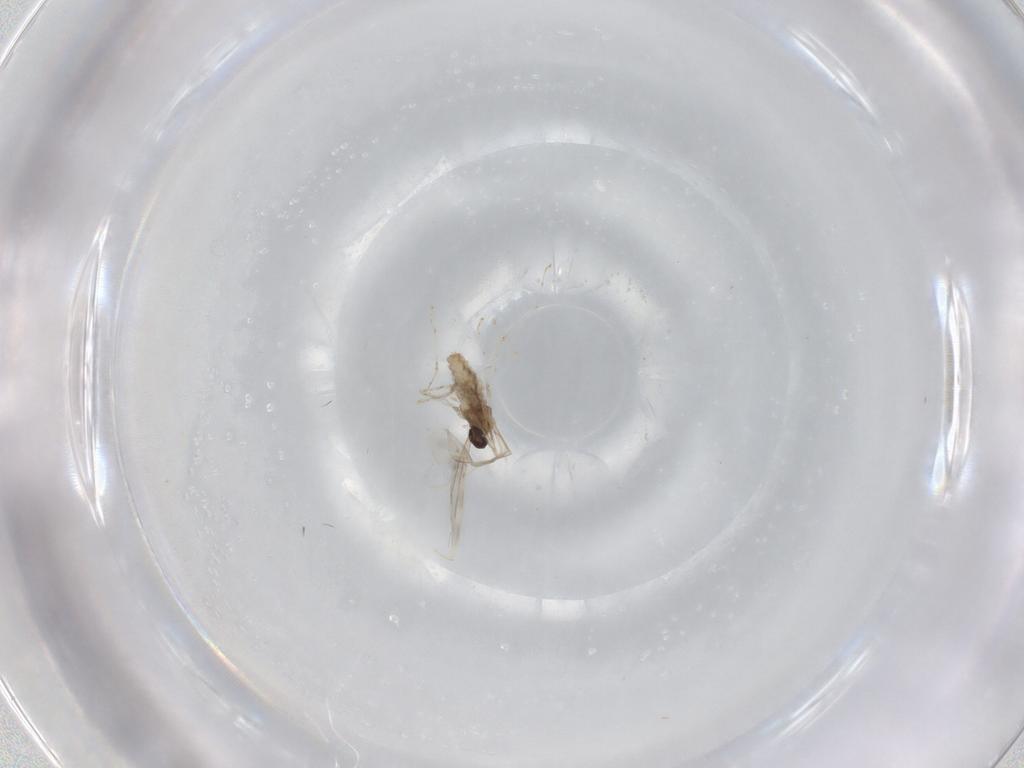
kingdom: Animalia
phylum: Arthropoda
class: Insecta
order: Diptera
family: Cecidomyiidae
